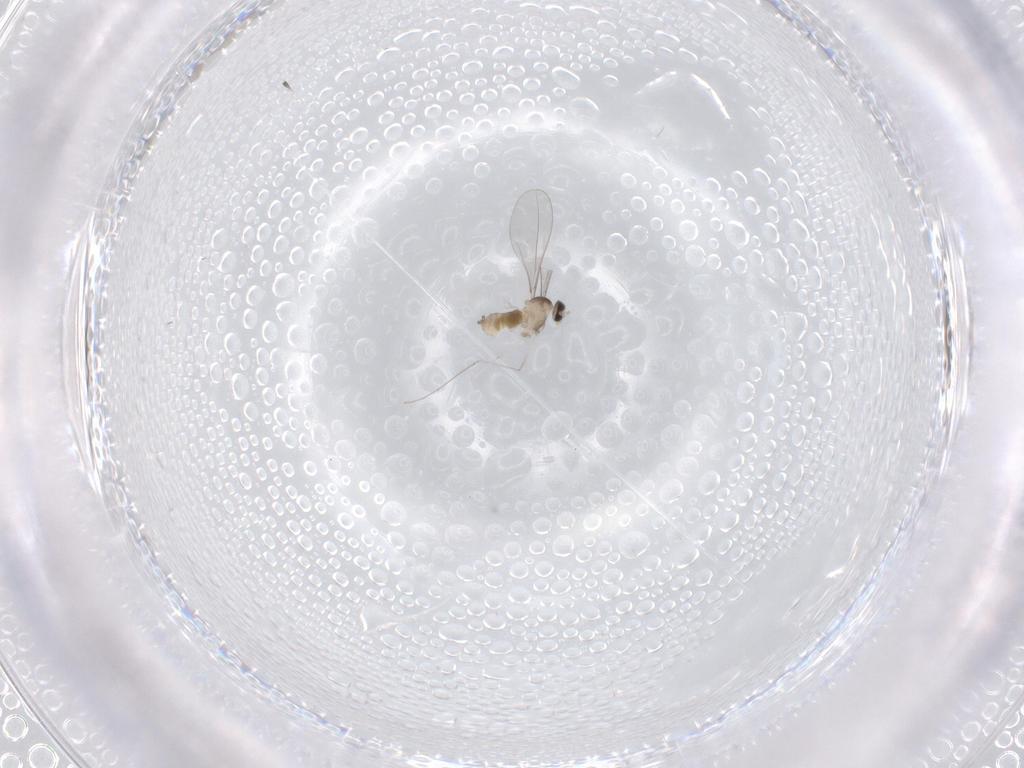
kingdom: Animalia
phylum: Arthropoda
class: Insecta
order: Diptera
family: Cecidomyiidae
